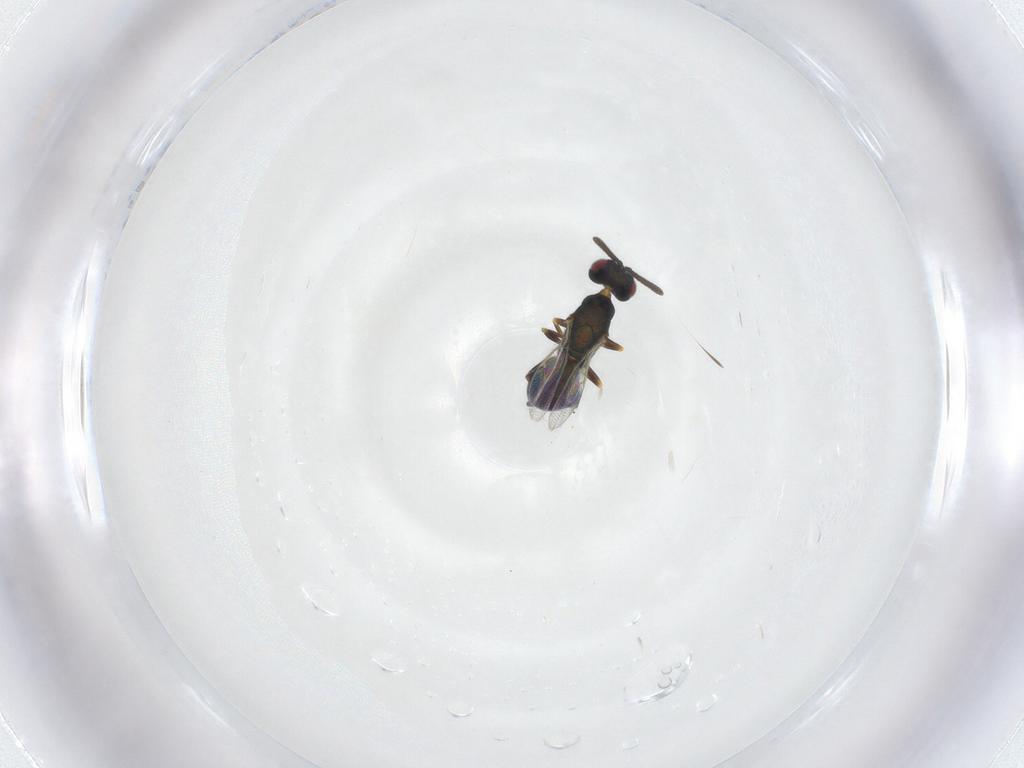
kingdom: Animalia
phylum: Arthropoda
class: Insecta
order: Hymenoptera
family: Torymidae
